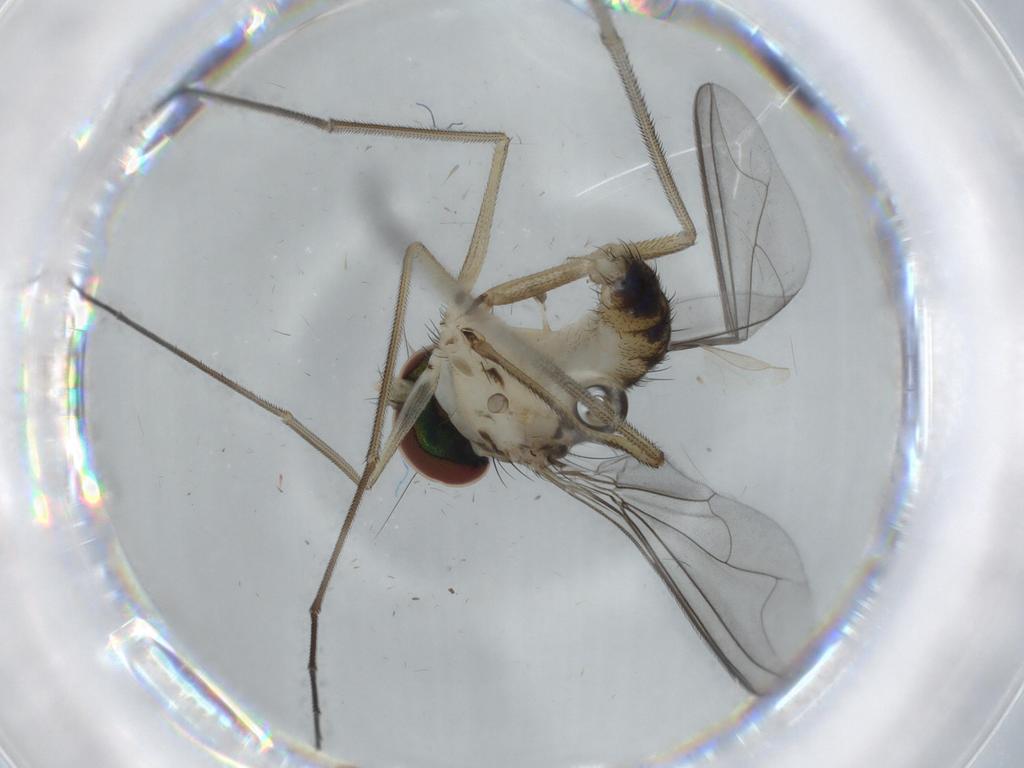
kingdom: Animalia
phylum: Arthropoda
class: Insecta
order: Diptera
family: Dolichopodidae
